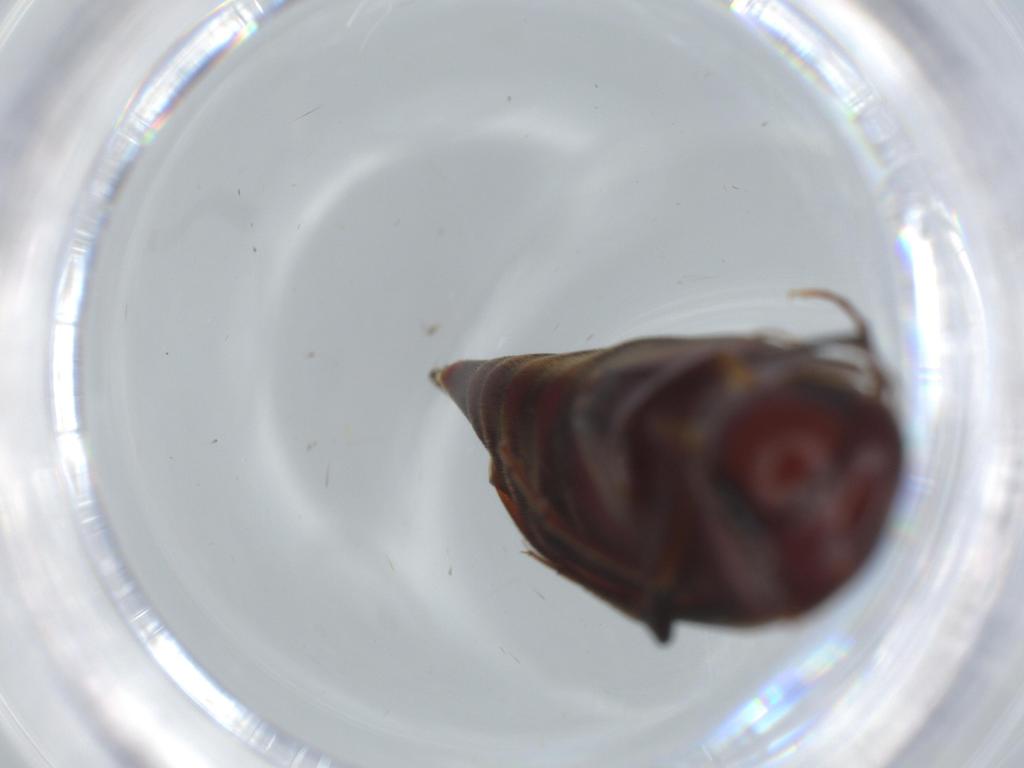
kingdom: Animalia
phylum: Arthropoda
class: Insecta
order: Coleoptera
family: Mordellidae
